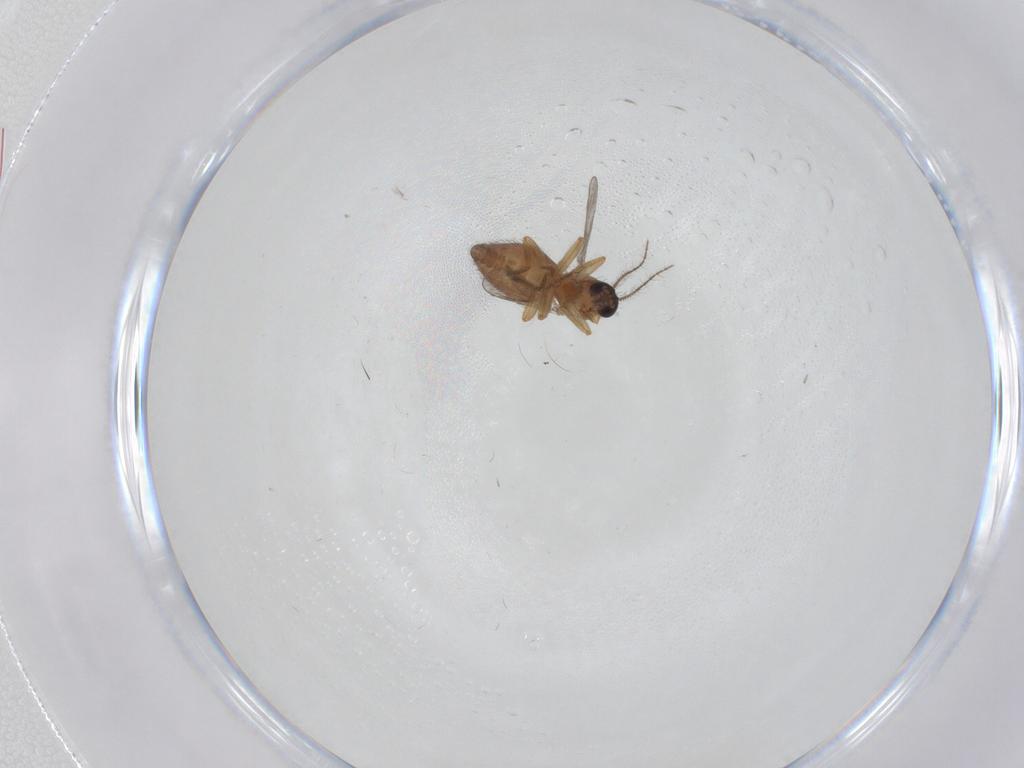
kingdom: Animalia
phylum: Arthropoda
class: Insecta
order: Diptera
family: Ceratopogonidae
